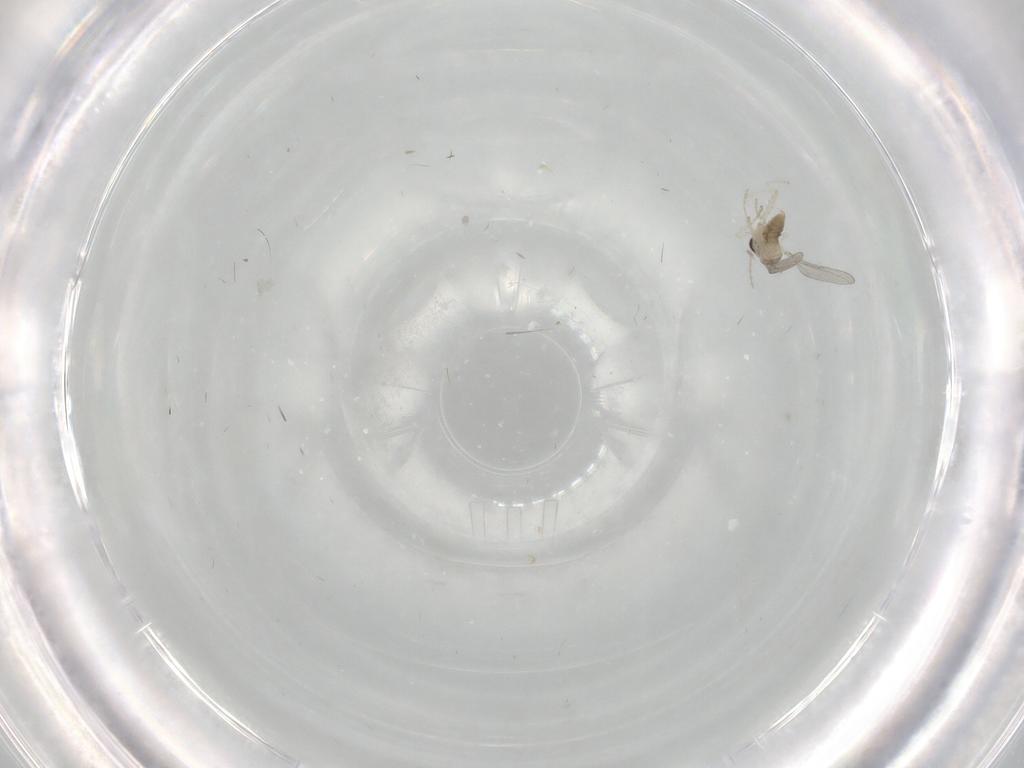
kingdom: Animalia
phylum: Arthropoda
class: Insecta
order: Diptera
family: Cecidomyiidae
